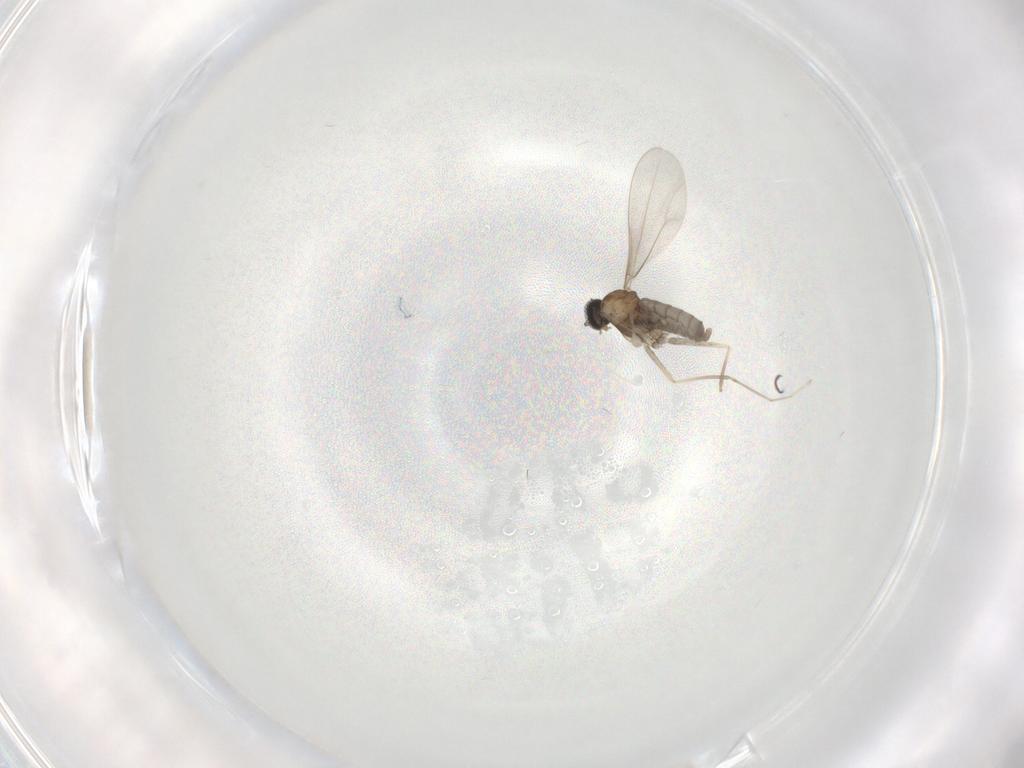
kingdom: Animalia
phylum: Arthropoda
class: Insecta
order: Diptera
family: Cecidomyiidae
